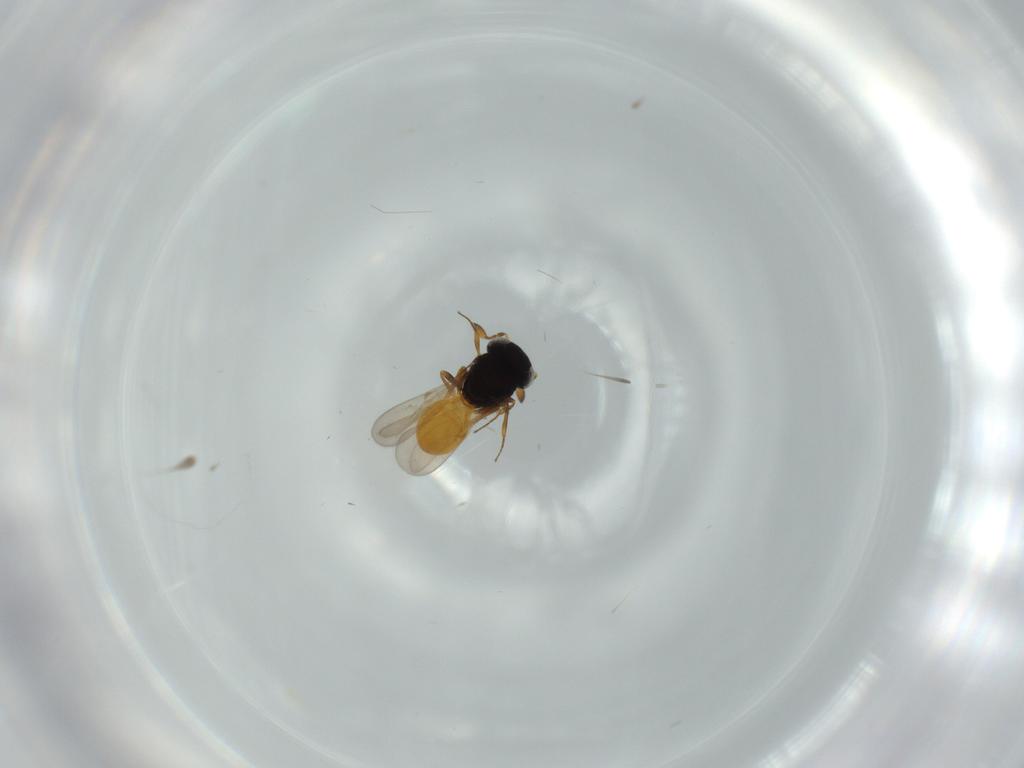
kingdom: Animalia
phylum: Arthropoda
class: Insecta
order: Hymenoptera
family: Scelionidae
